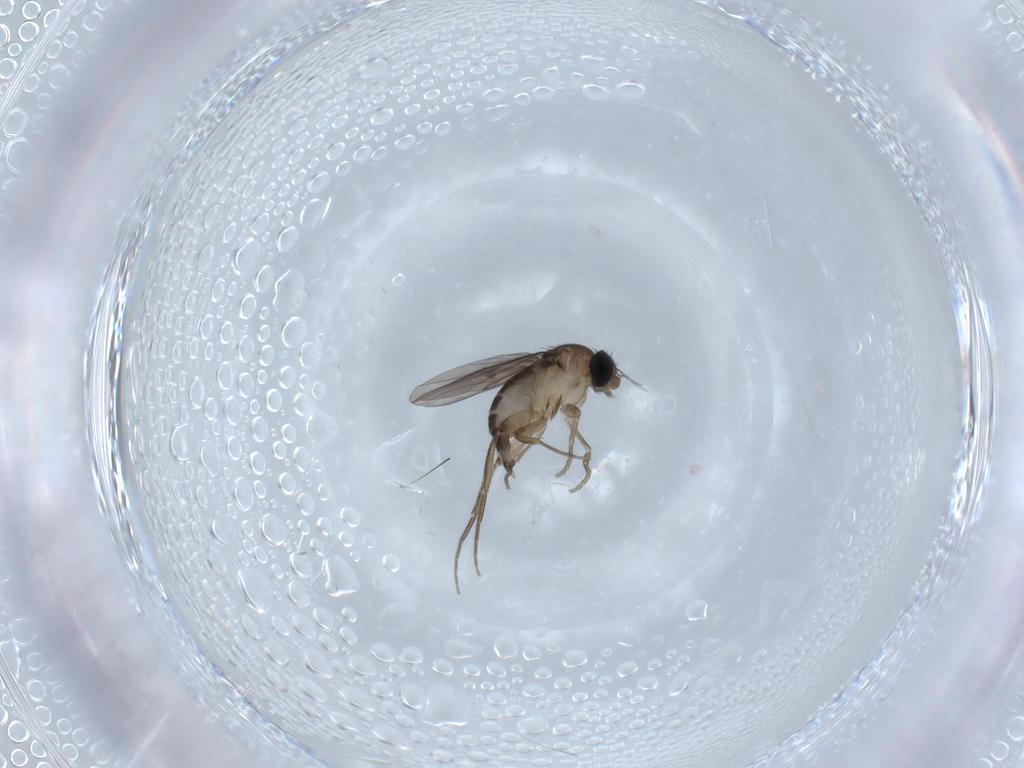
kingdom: Animalia
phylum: Arthropoda
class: Insecta
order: Diptera
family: Phoridae
